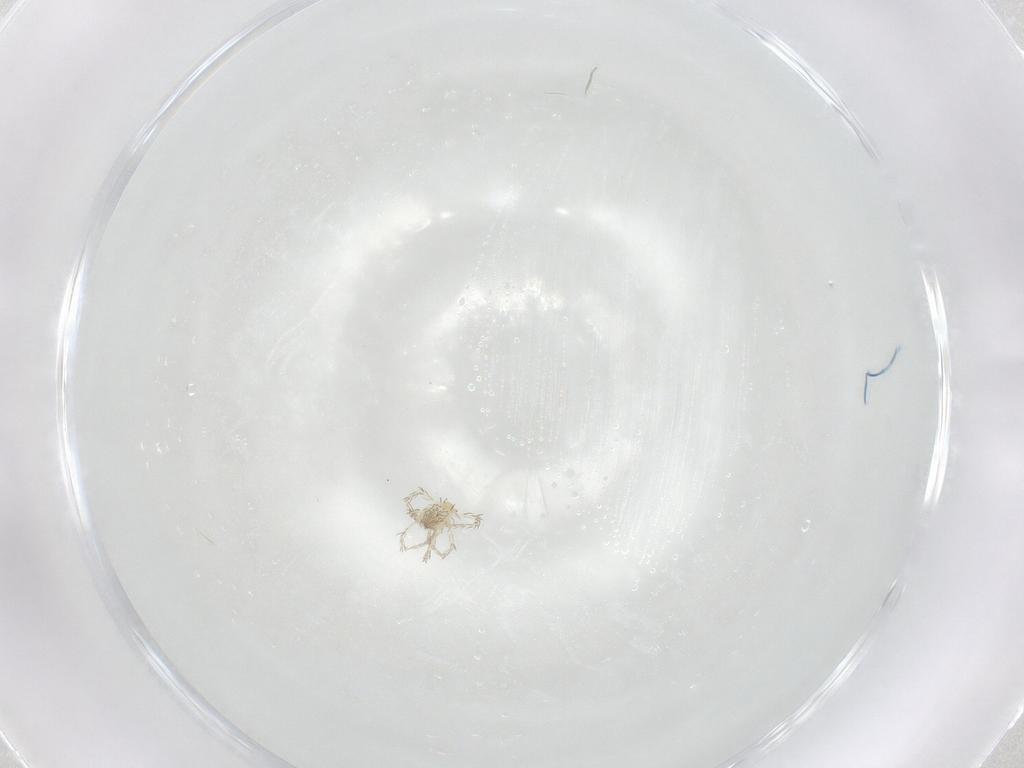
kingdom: Animalia
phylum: Arthropoda
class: Arachnida
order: Trombidiformes
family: Erythraeidae
